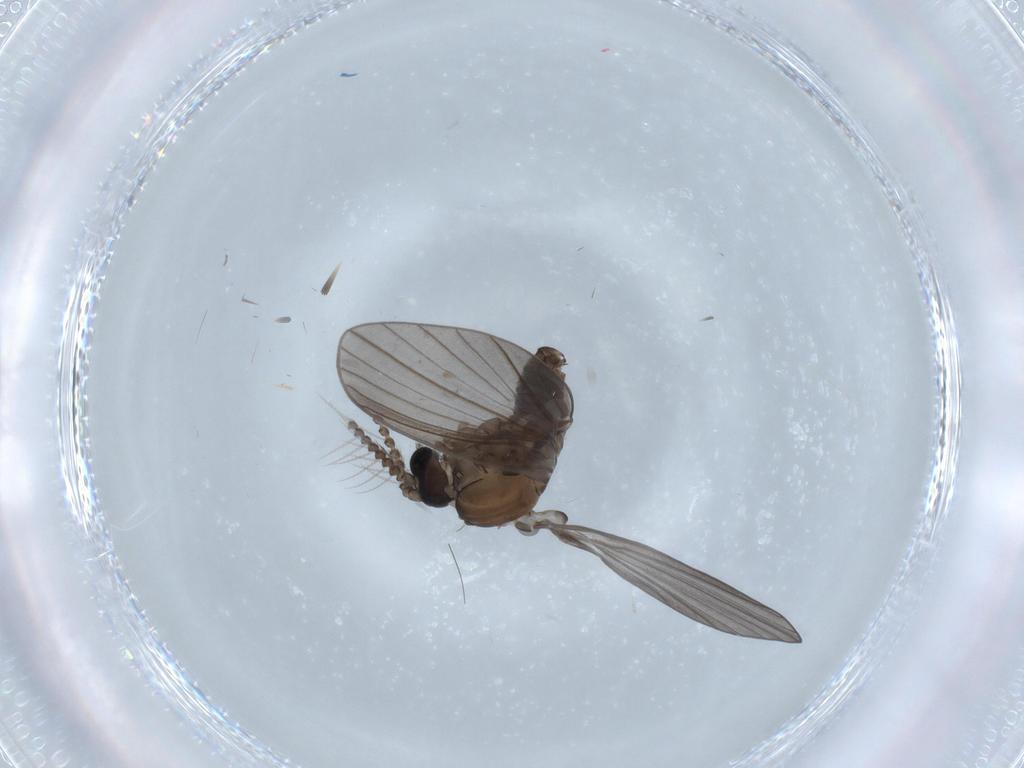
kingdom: Animalia
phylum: Arthropoda
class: Insecta
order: Diptera
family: Psychodidae
